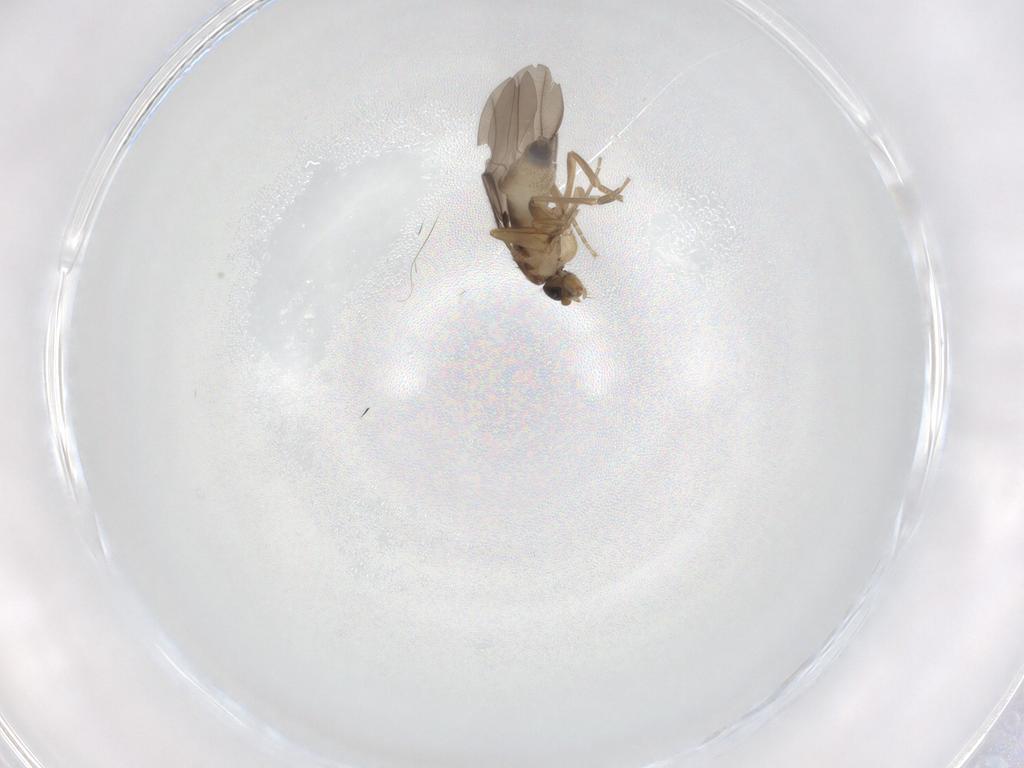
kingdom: Animalia
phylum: Arthropoda
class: Insecta
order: Diptera
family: Phoridae
